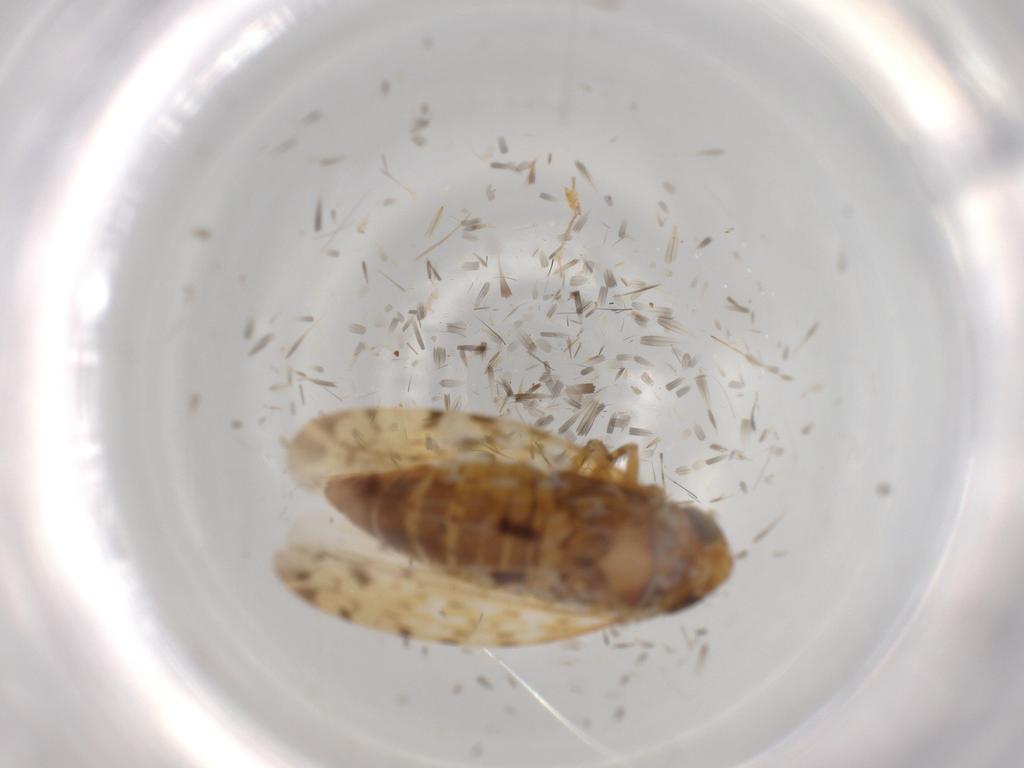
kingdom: Animalia
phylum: Arthropoda
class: Insecta
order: Hemiptera
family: Cicadellidae
